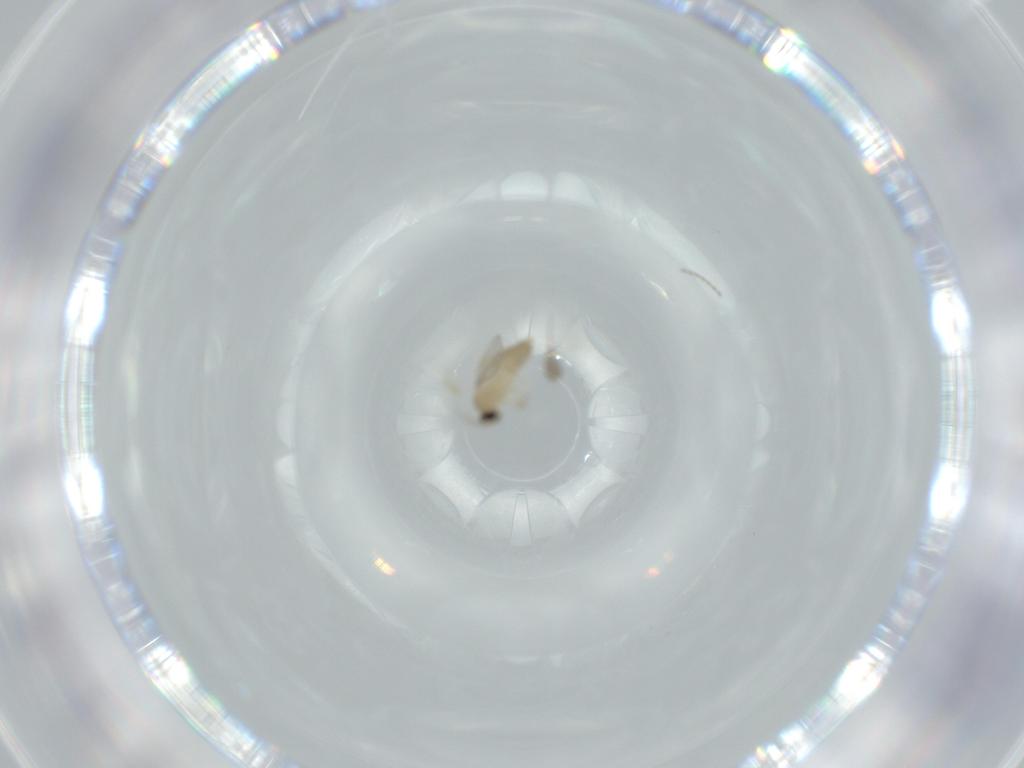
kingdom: Animalia
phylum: Arthropoda
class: Insecta
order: Diptera
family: Cecidomyiidae
